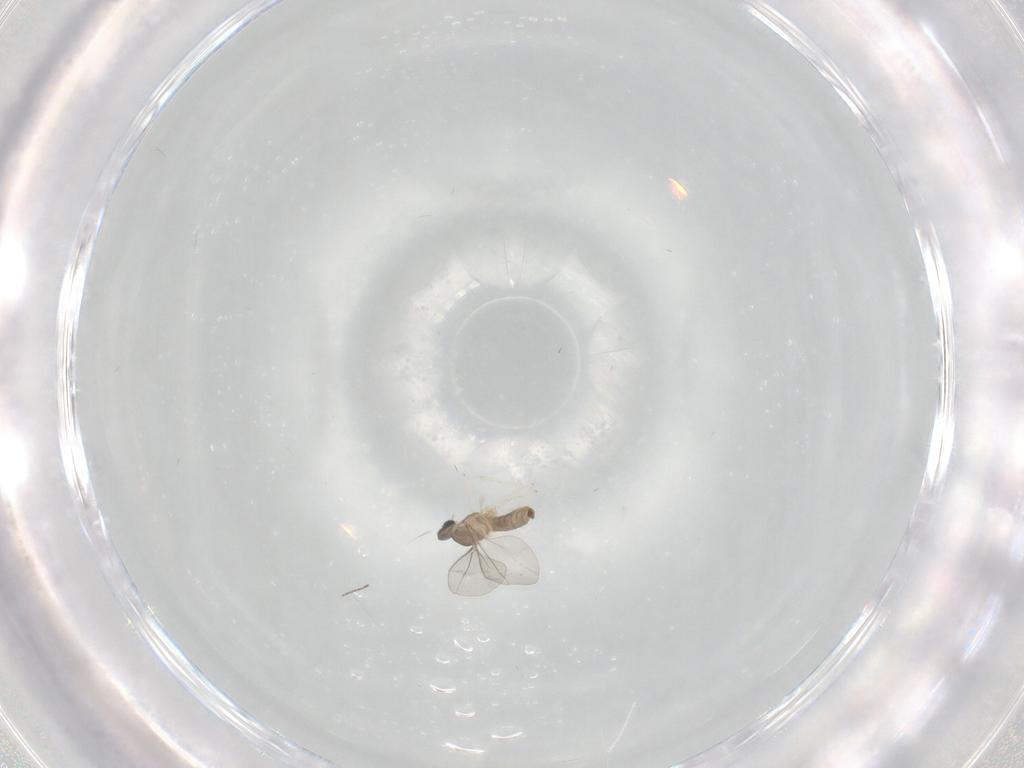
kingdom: Animalia
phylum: Arthropoda
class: Insecta
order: Diptera
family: Cecidomyiidae
